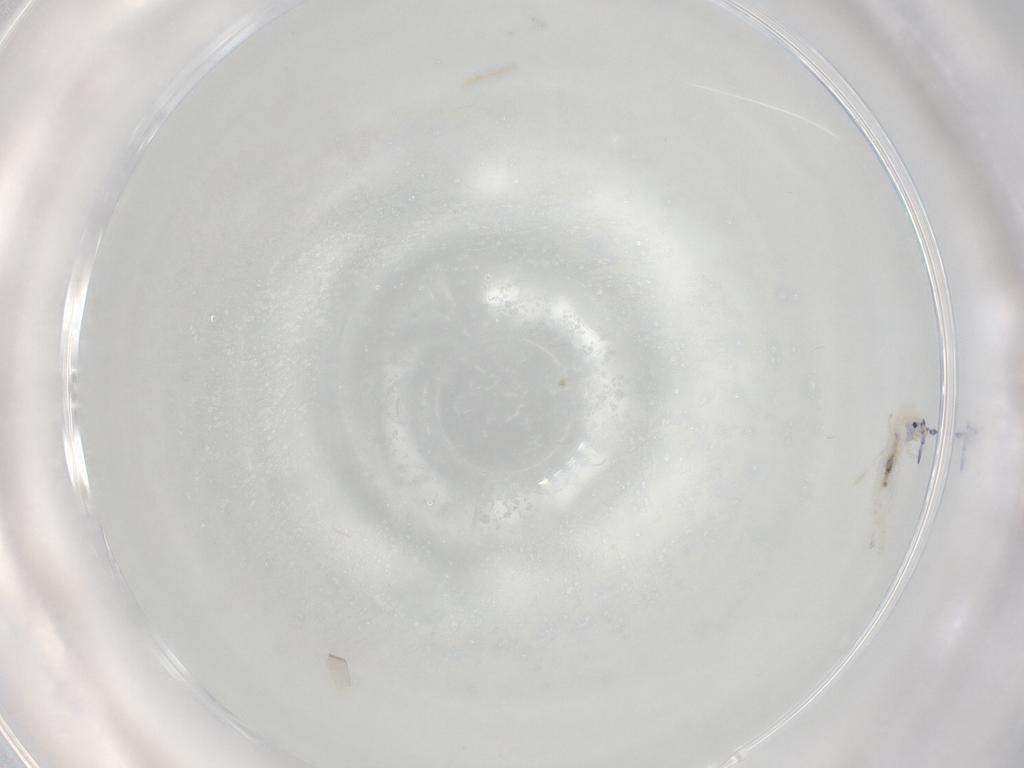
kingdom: Animalia
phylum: Arthropoda
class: Collembola
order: Entomobryomorpha
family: Entomobryidae
